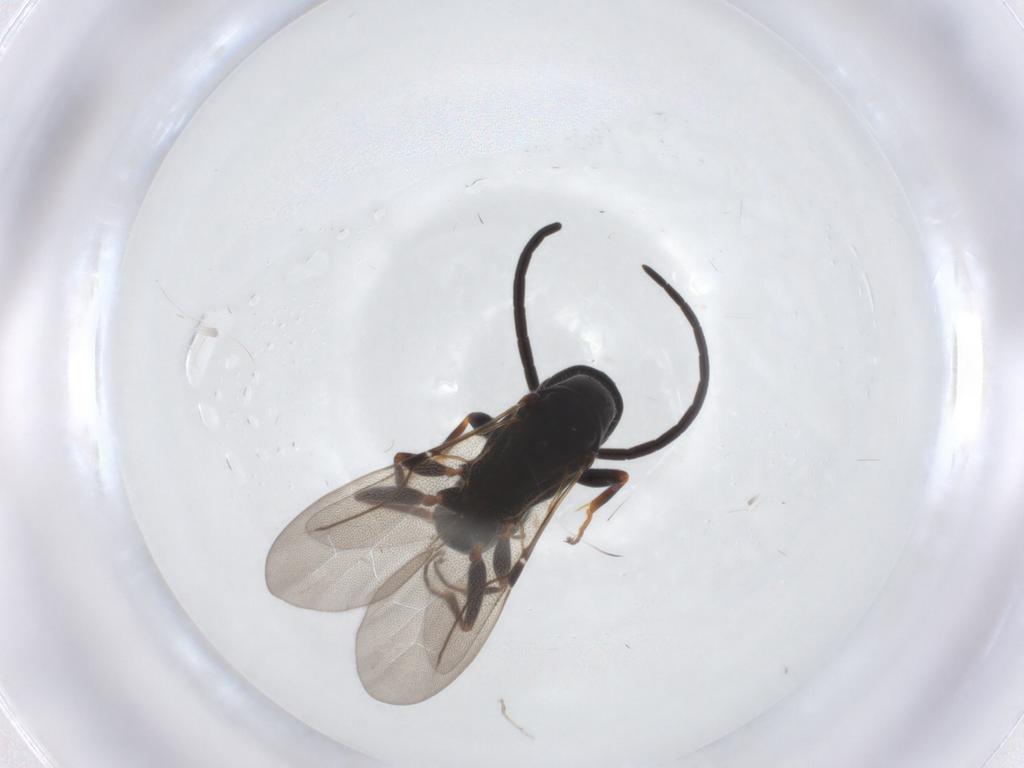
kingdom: Animalia
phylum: Arthropoda
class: Insecta
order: Hymenoptera
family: Bethylidae
